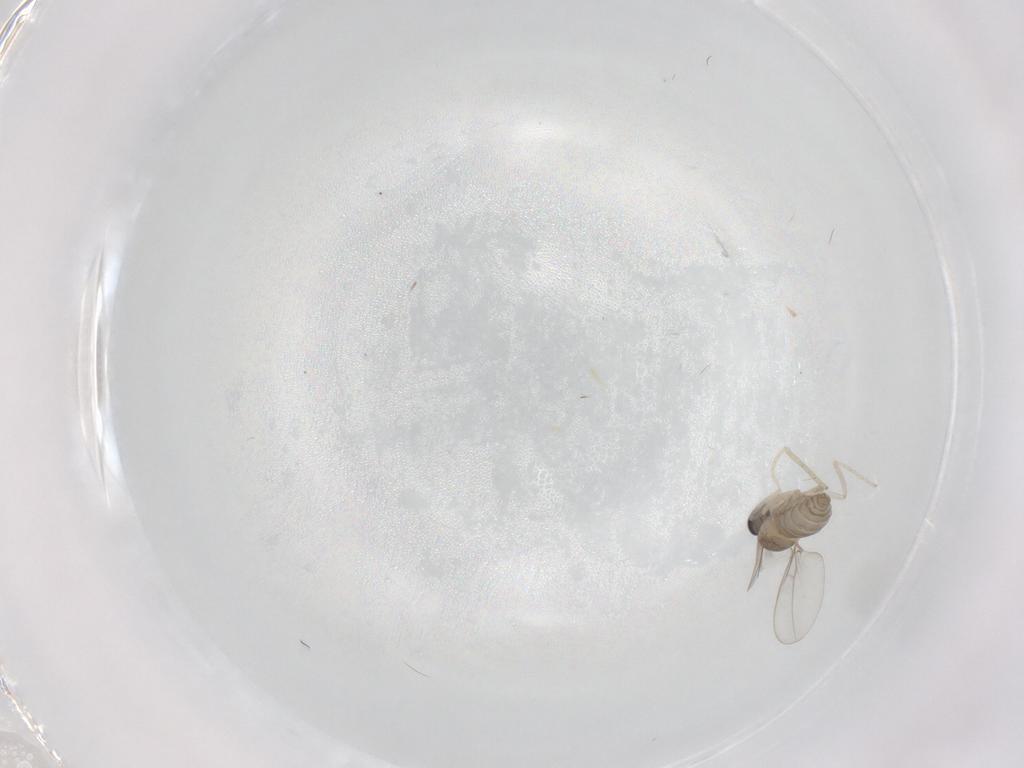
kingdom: Animalia
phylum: Arthropoda
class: Insecta
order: Diptera
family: Cecidomyiidae
